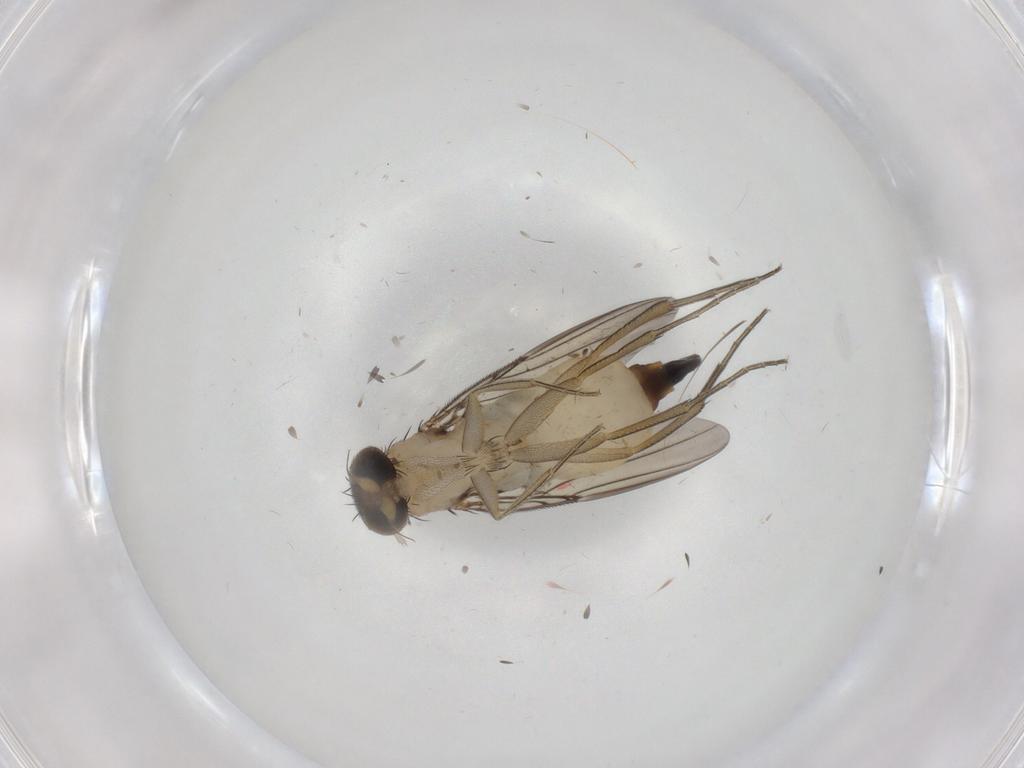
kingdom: Animalia
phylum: Arthropoda
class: Insecta
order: Diptera
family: Phoridae
